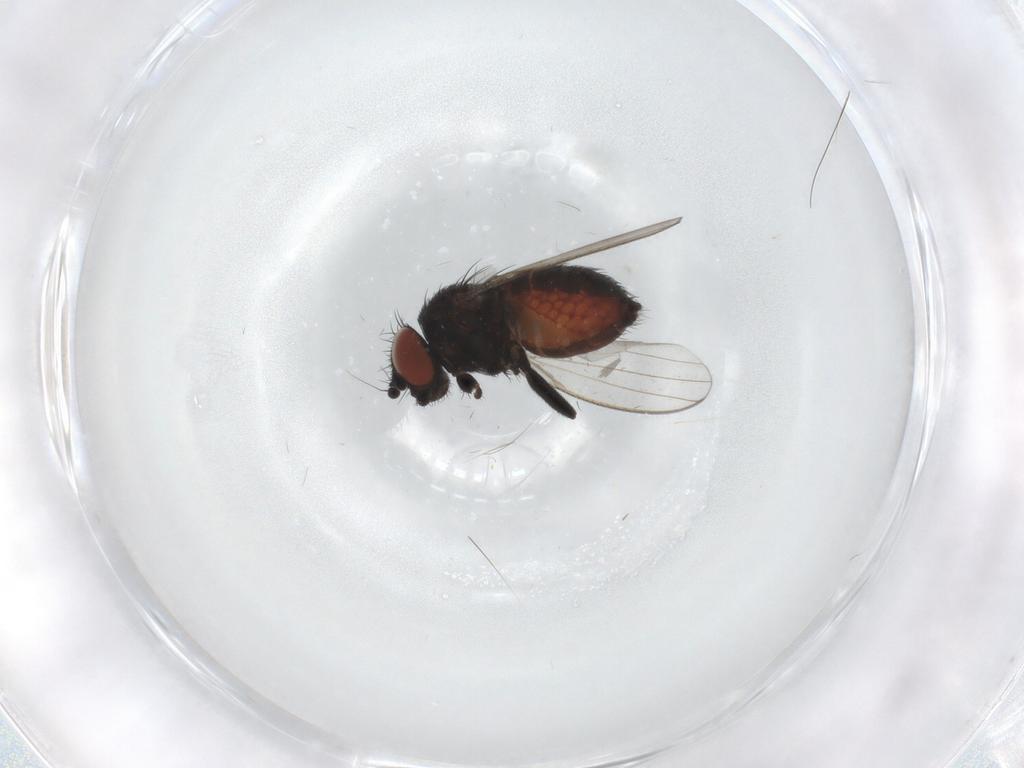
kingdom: Animalia
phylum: Arthropoda
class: Insecta
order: Diptera
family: Milichiidae
